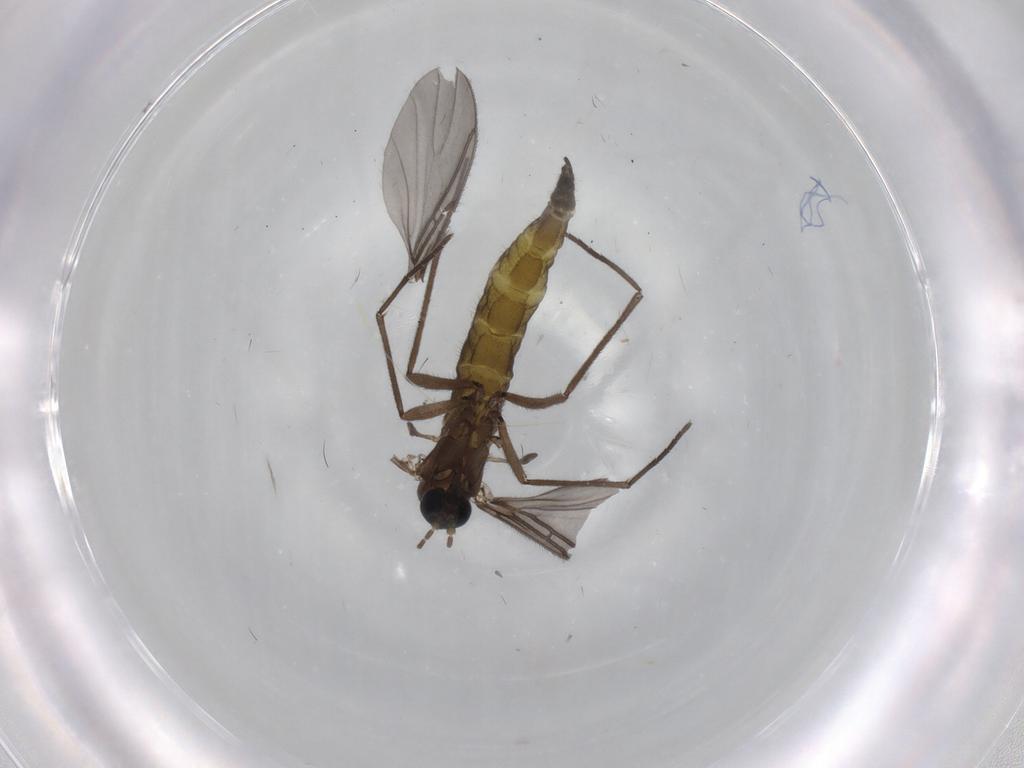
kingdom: Animalia
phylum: Arthropoda
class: Insecta
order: Diptera
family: Sciaridae
